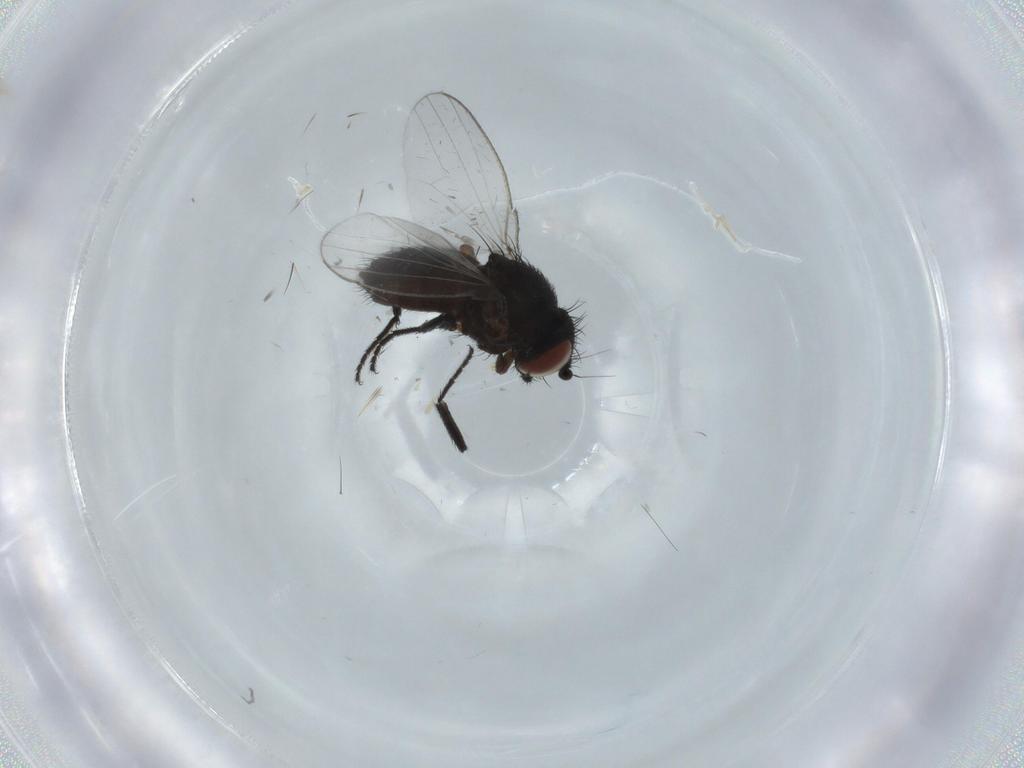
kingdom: Animalia
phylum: Arthropoda
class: Insecta
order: Diptera
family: Milichiidae
